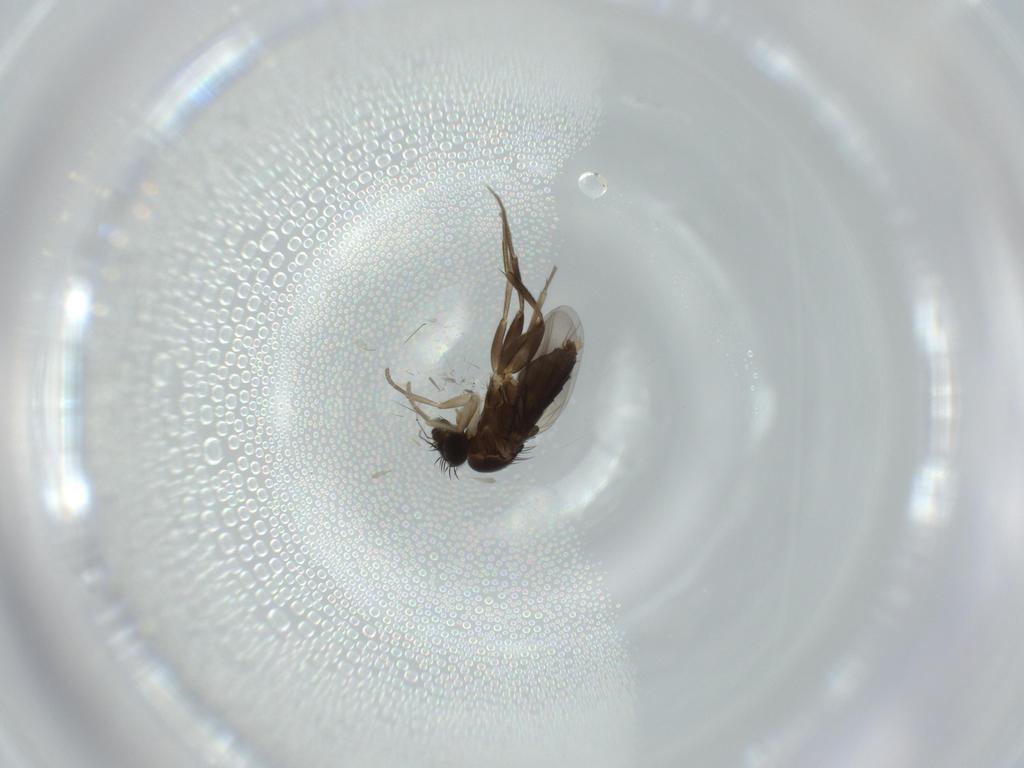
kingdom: Animalia
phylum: Arthropoda
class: Insecta
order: Diptera
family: Phoridae
